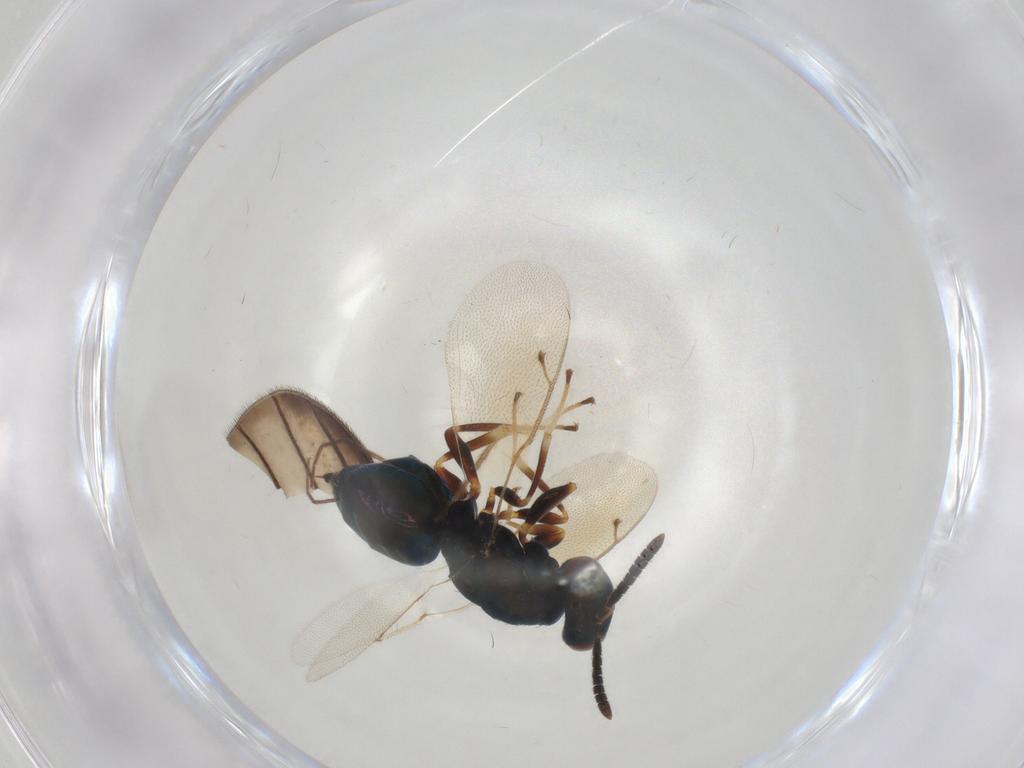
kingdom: Animalia
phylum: Arthropoda
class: Insecta
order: Hymenoptera
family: Pteromalidae
